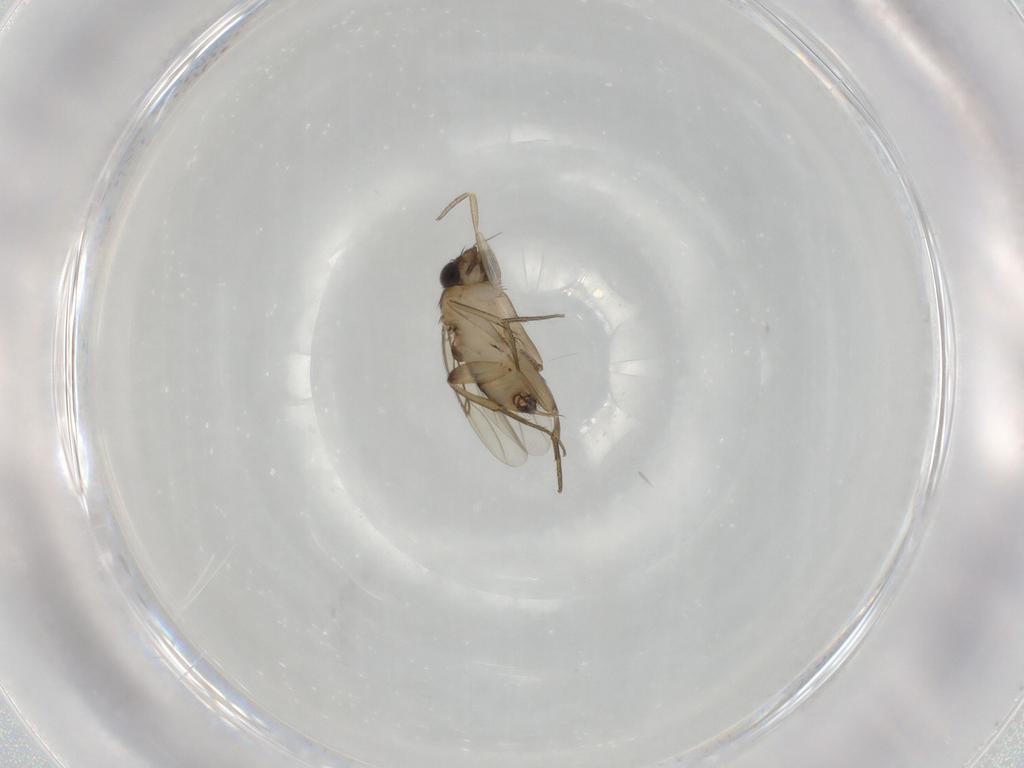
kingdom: Animalia
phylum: Arthropoda
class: Insecta
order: Diptera
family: Phoridae
